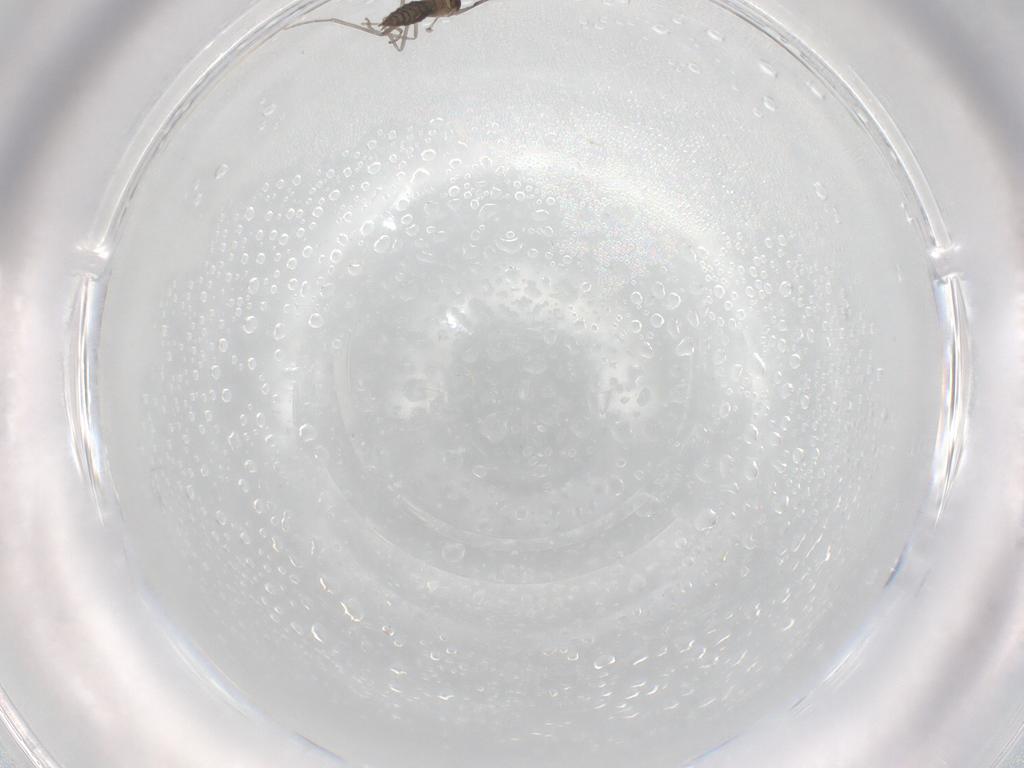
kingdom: Animalia
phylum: Arthropoda
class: Insecta
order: Diptera
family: Cecidomyiidae
